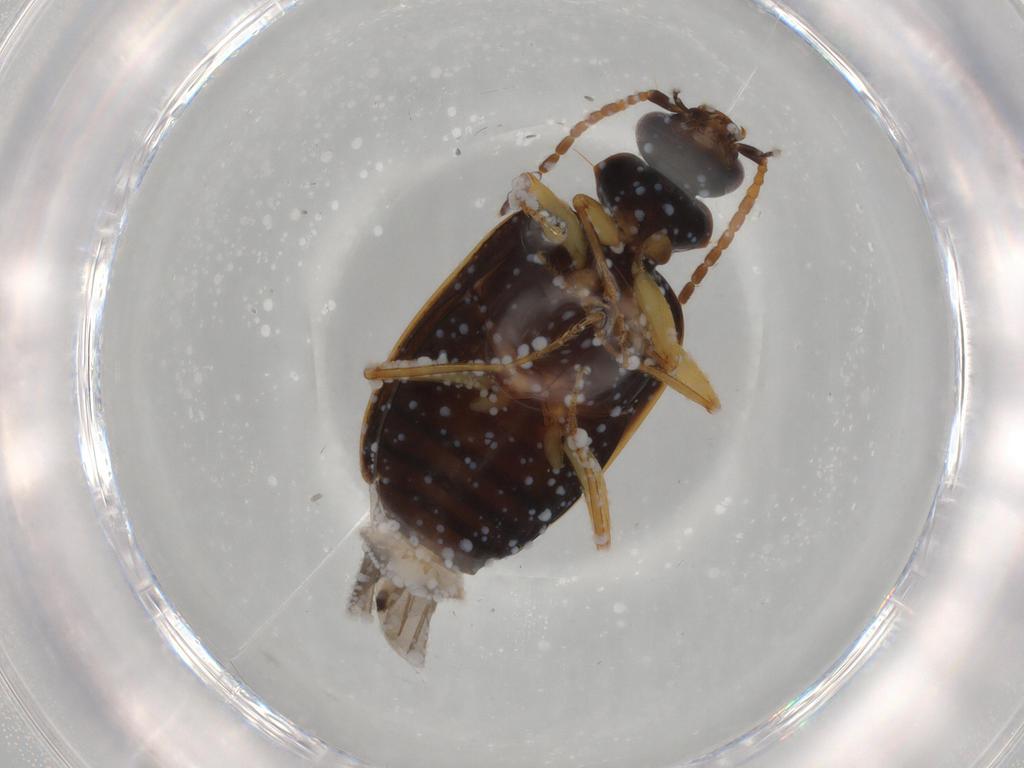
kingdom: Animalia
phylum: Arthropoda
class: Insecta
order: Coleoptera
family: Carabidae
